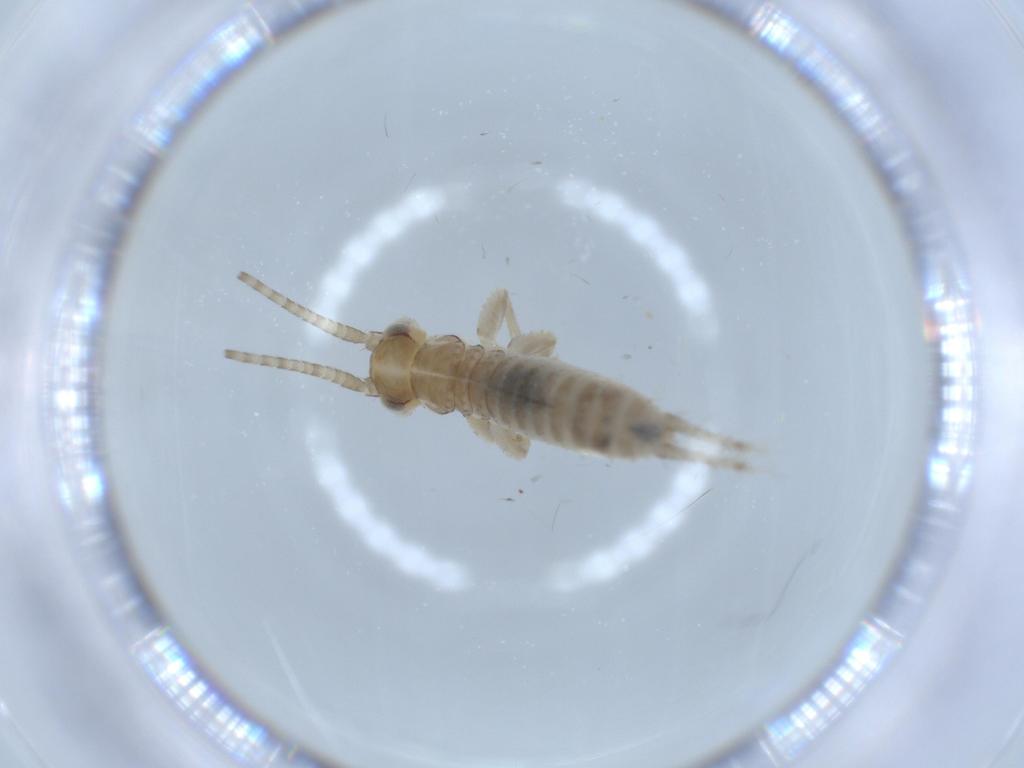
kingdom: Animalia
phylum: Arthropoda
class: Insecta
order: Orthoptera
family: Gryllidae
